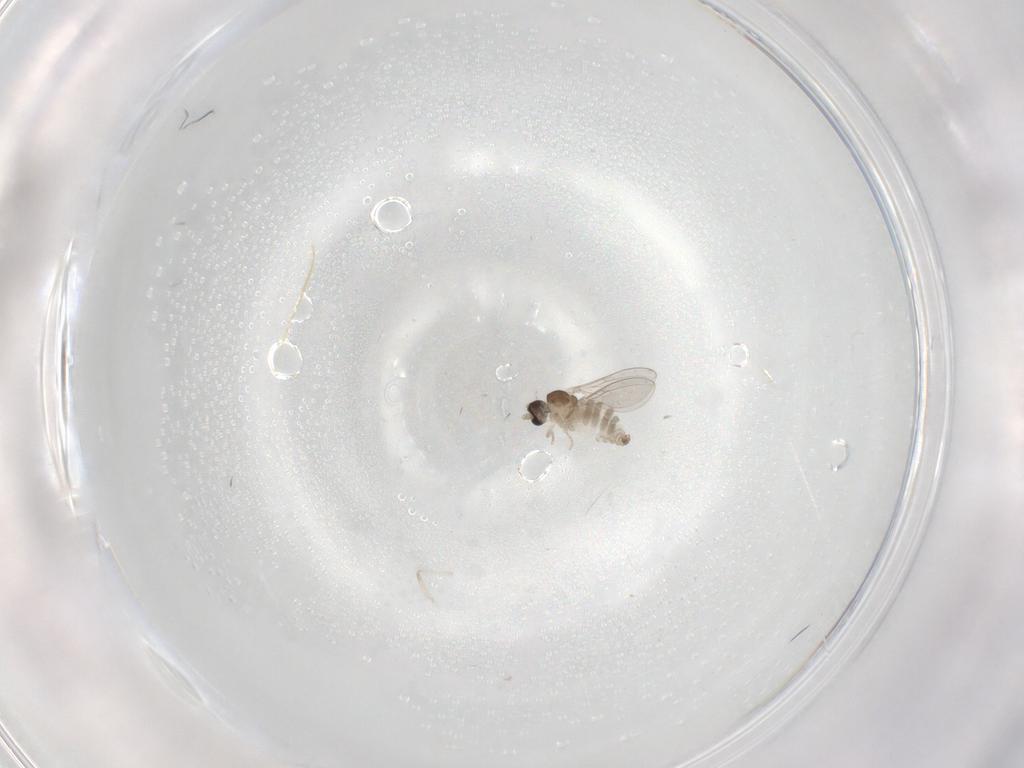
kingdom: Animalia
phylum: Arthropoda
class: Insecta
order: Diptera
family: Cecidomyiidae
